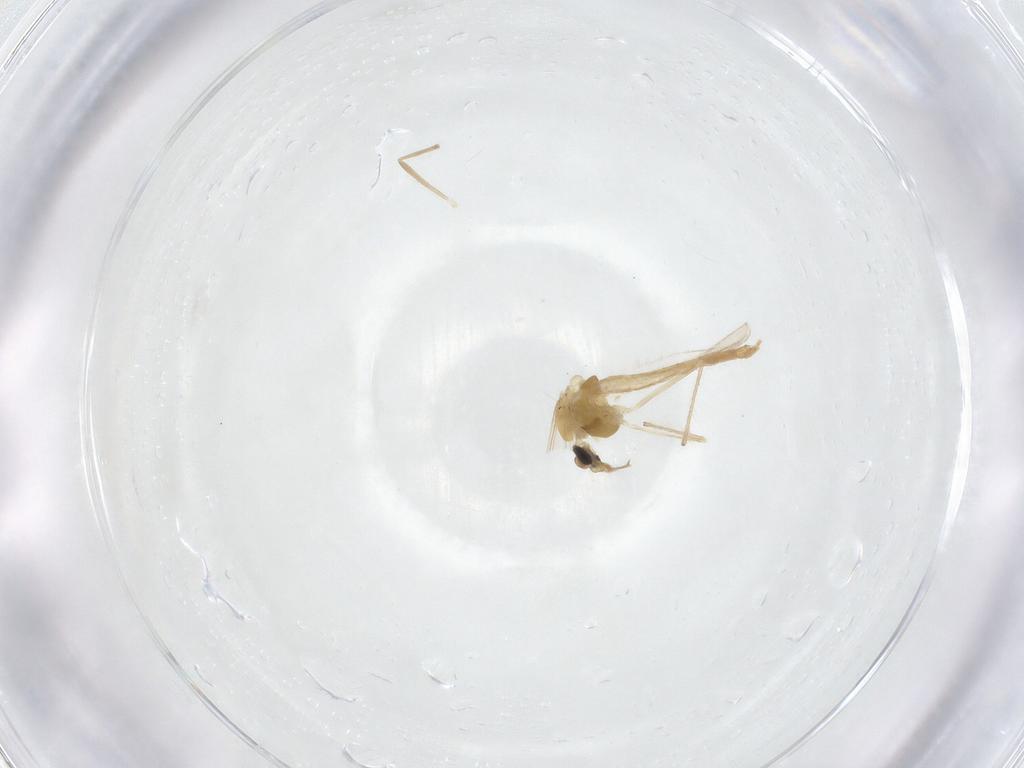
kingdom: Animalia
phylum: Arthropoda
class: Insecta
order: Diptera
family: Chironomidae
